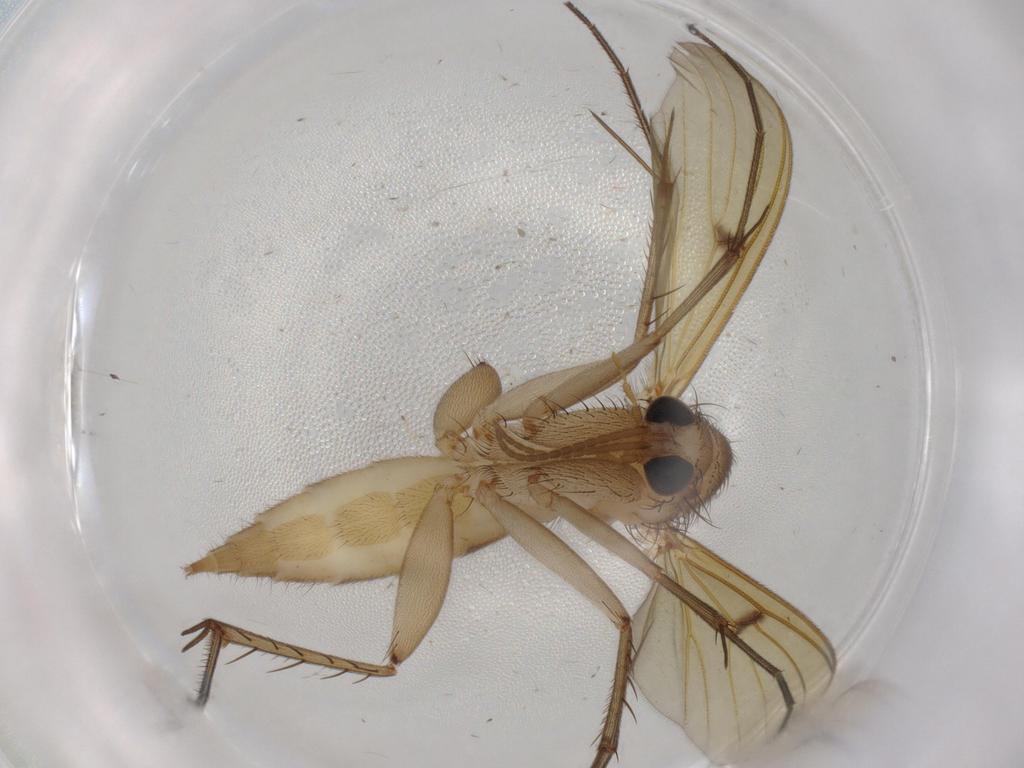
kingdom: Animalia
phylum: Arthropoda
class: Insecta
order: Diptera
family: Mycetophilidae
